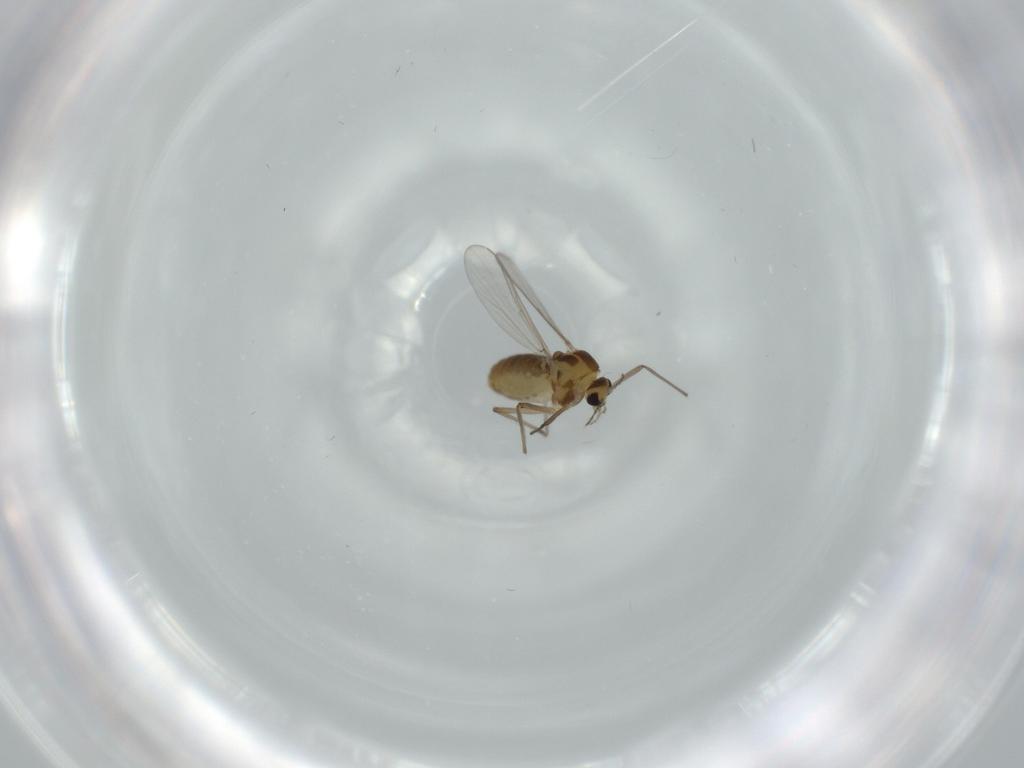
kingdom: Animalia
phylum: Arthropoda
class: Insecta
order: Diptera
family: Chironomidae
